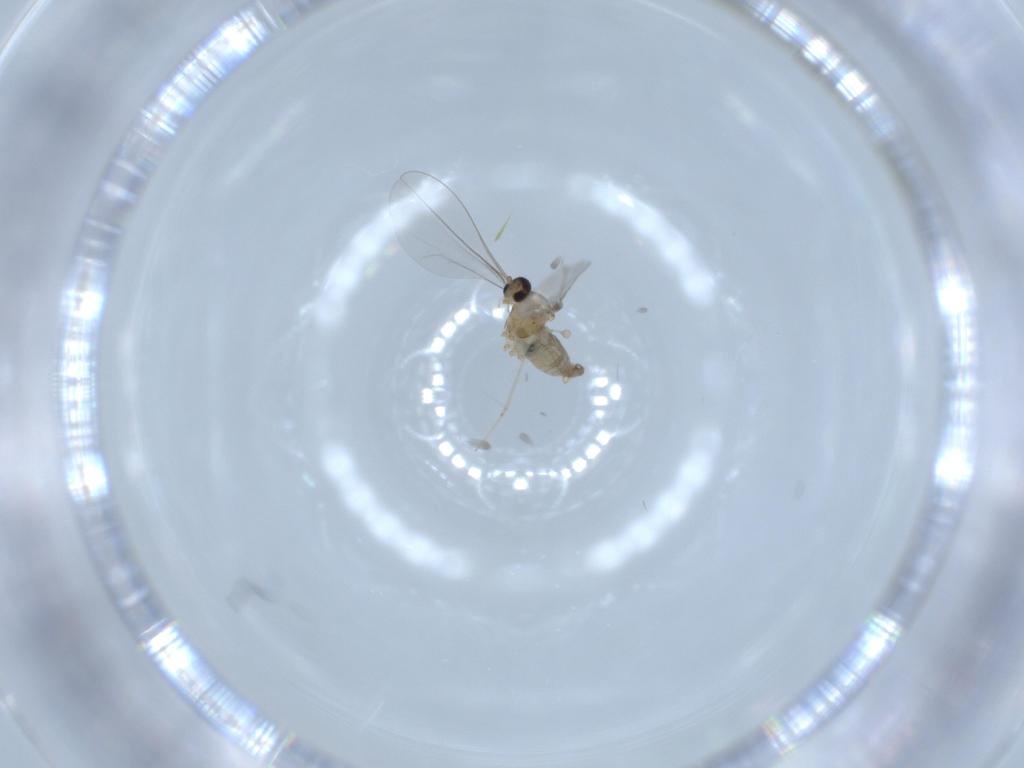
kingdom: Animalia
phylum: Arthropoda
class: Insecta
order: Diptera
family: Cecidomyiidae
